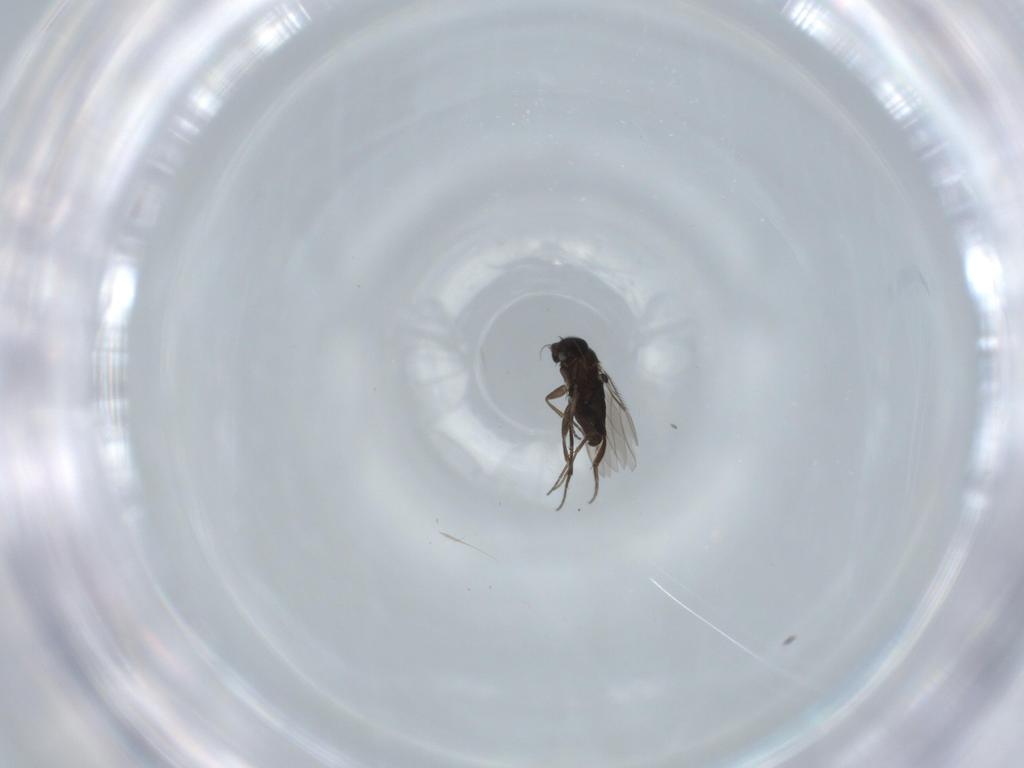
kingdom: Animalia
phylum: Arthropoda
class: Insecta
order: Diptera
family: Phoridae
